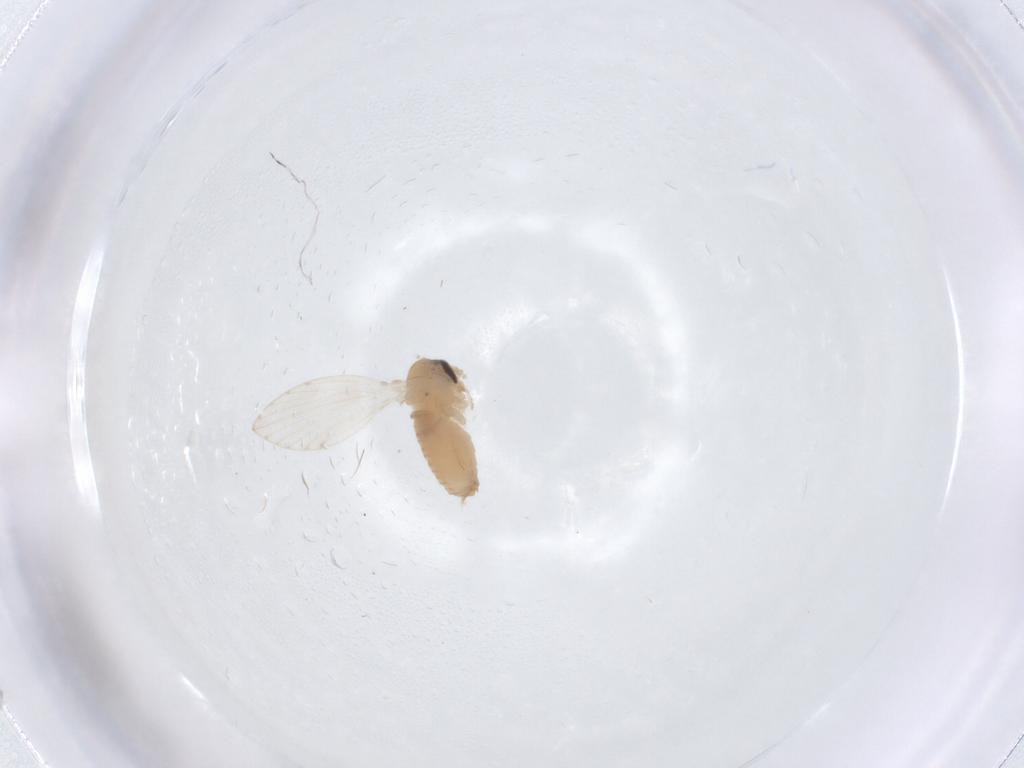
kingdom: Animalia
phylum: Arthropoda
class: Insecta
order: Diptera
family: Psychodidae
